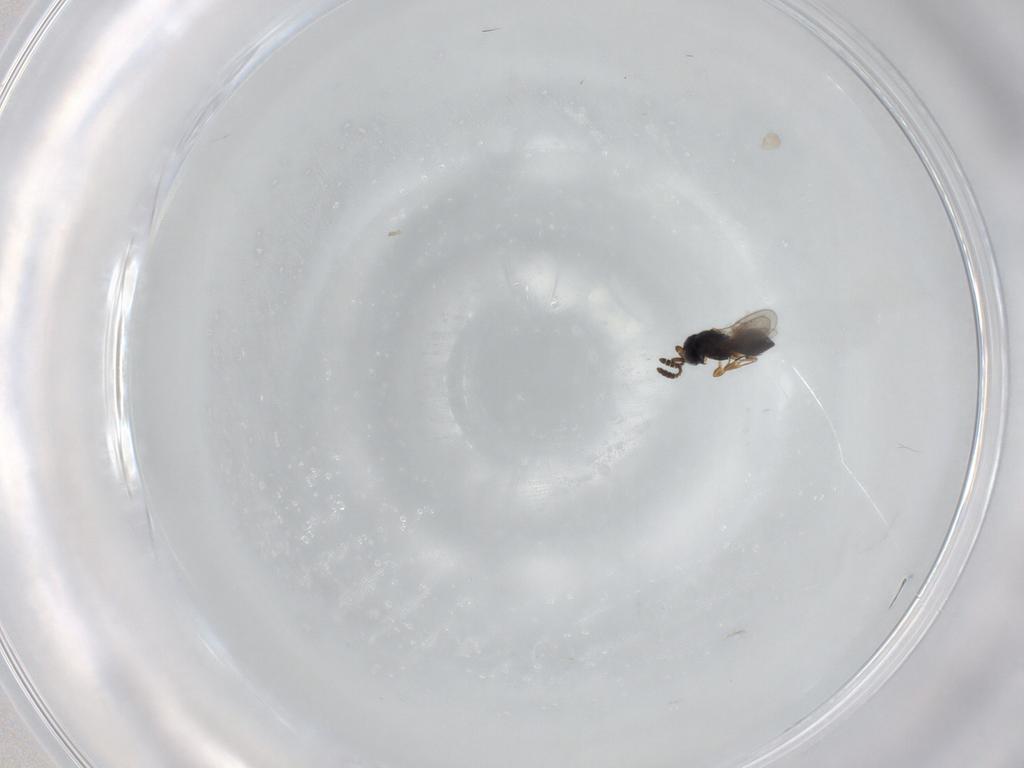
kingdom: Animalia
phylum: Arthropoda
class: Insecta
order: Hymenoptera
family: Scelionidae
